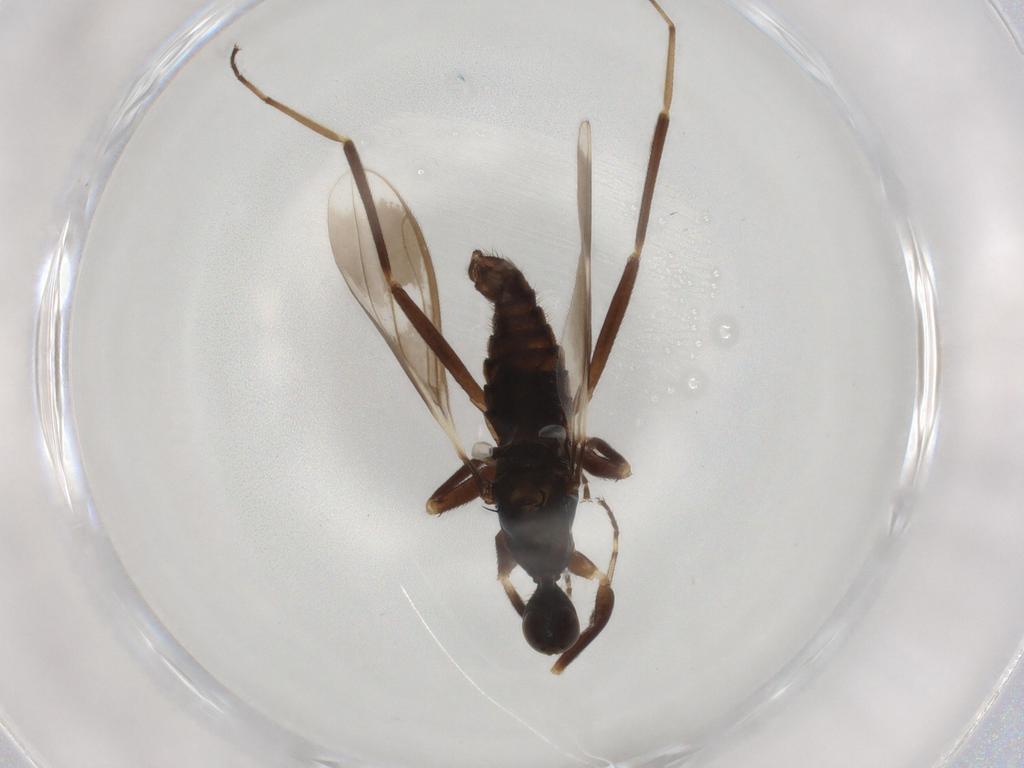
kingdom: Animalia
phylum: Arthropoda
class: Insecta
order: Diptera
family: Hybotidae
